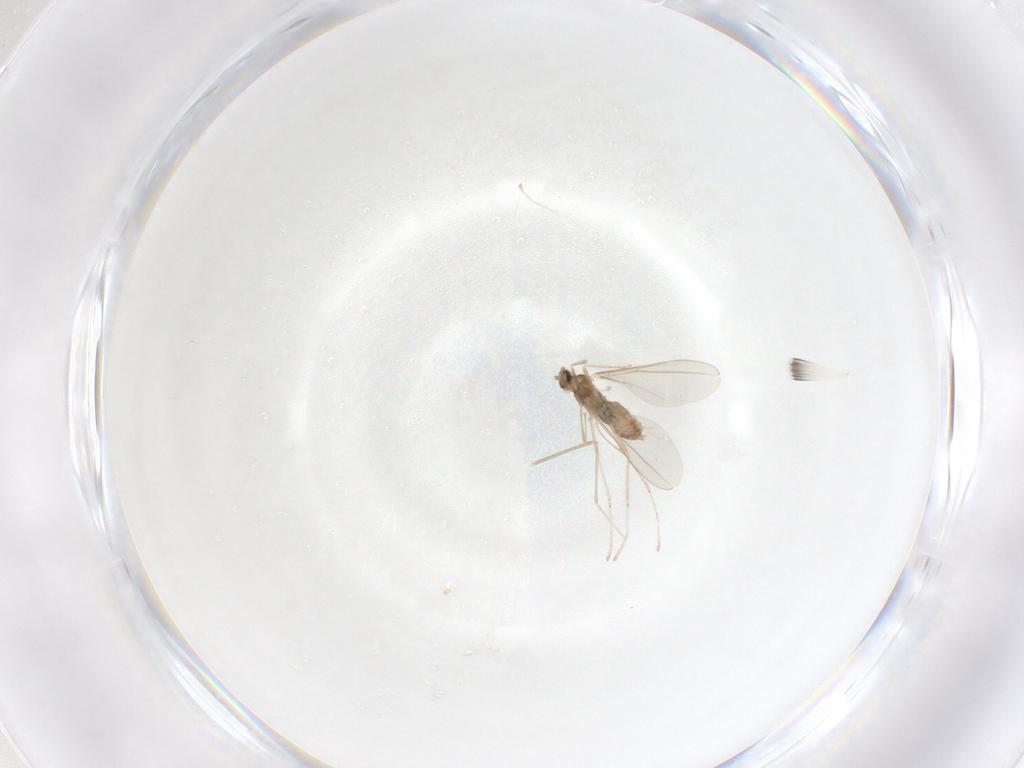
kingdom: Animalia
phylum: Arthropoda
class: Insecta
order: Diptera
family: Cecidomyiidae
